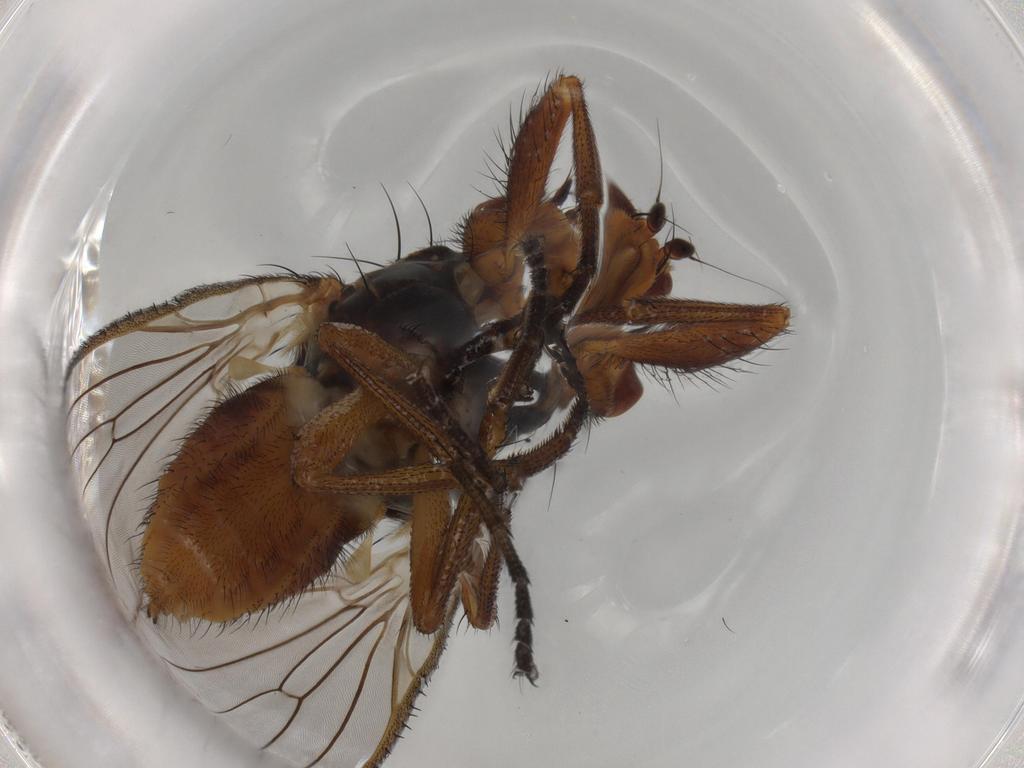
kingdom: Animalia
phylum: Arthropoda
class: Insecta
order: Diptera
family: Heleomyzidae
